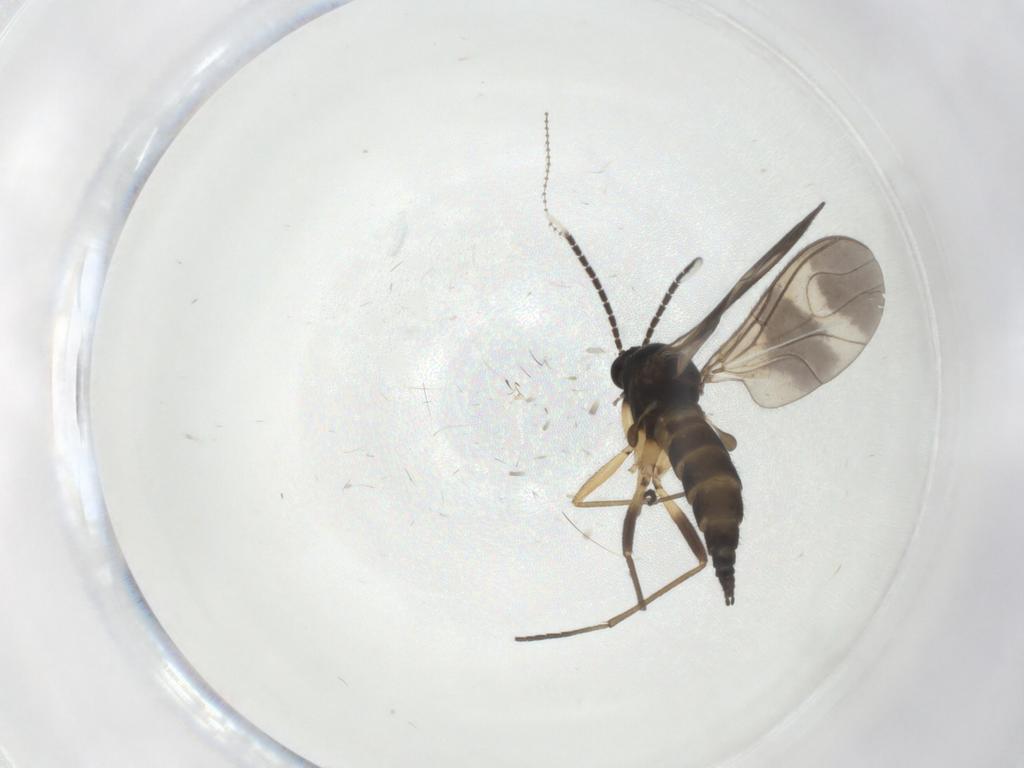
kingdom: Animalia
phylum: Arthropoda
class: Insecta
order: Diptera
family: Sciaridae
